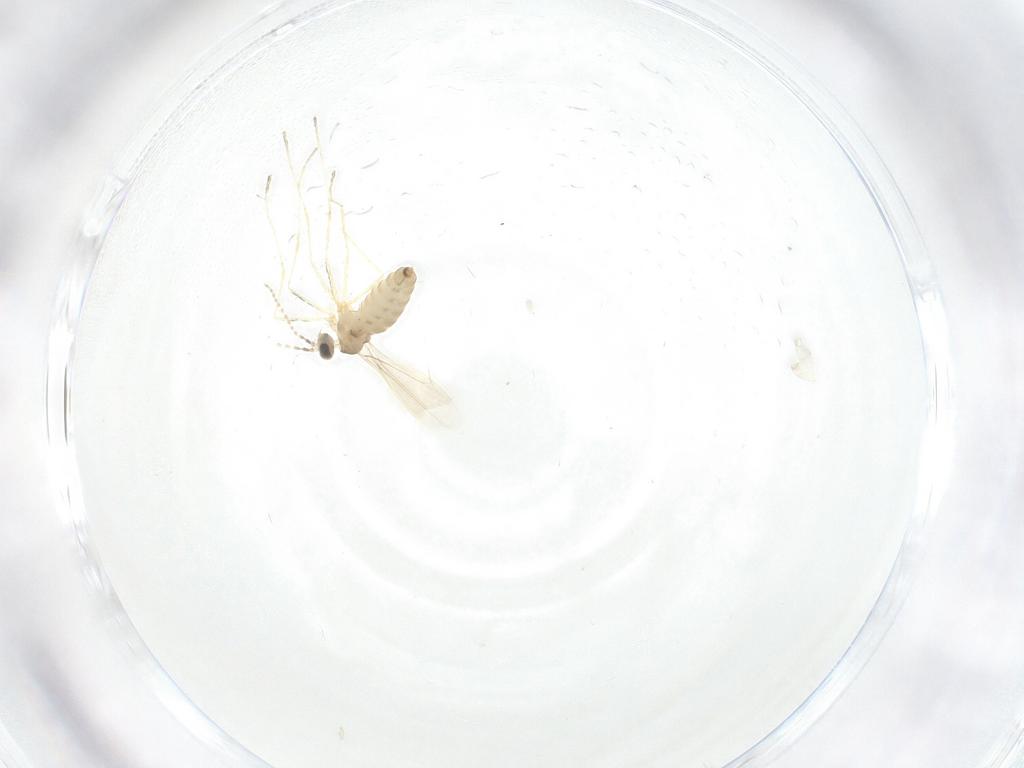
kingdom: Animalia
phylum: Arthropoda
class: Insecta
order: Diptera
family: Cecidomyiidae
